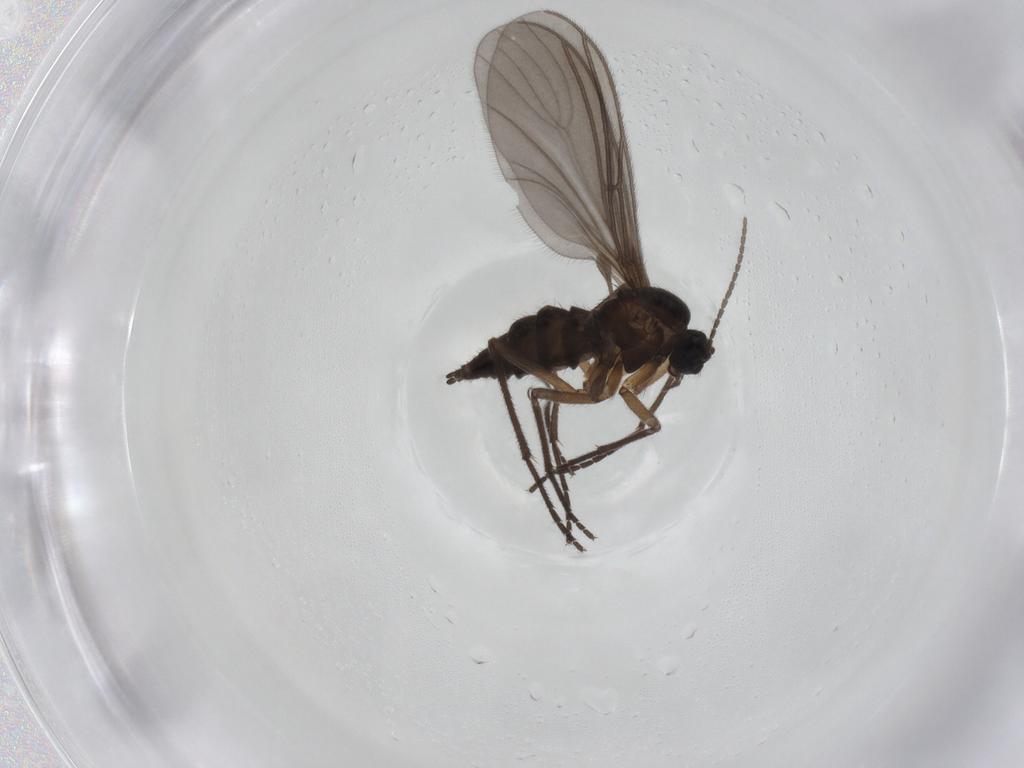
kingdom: Animalia
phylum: Arthropoda
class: Insecta
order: Diptera
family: Sciaridae
